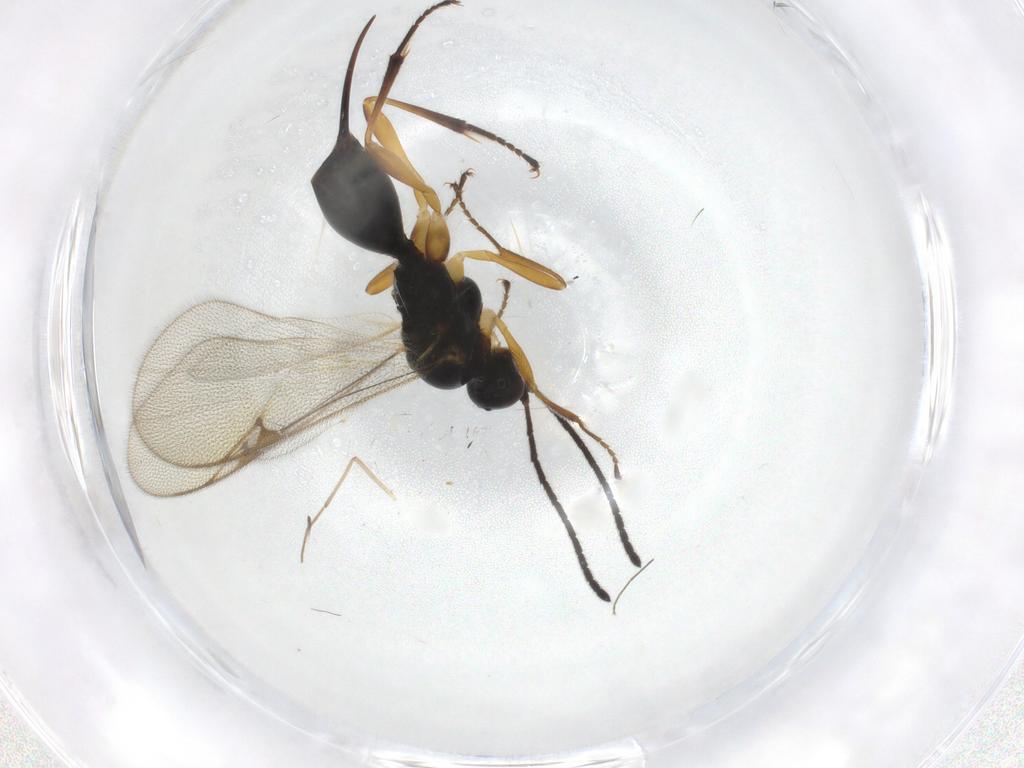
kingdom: Animalia
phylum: Arthropoda
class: Insecta
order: Hymenoptera
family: Proctotrupidae
